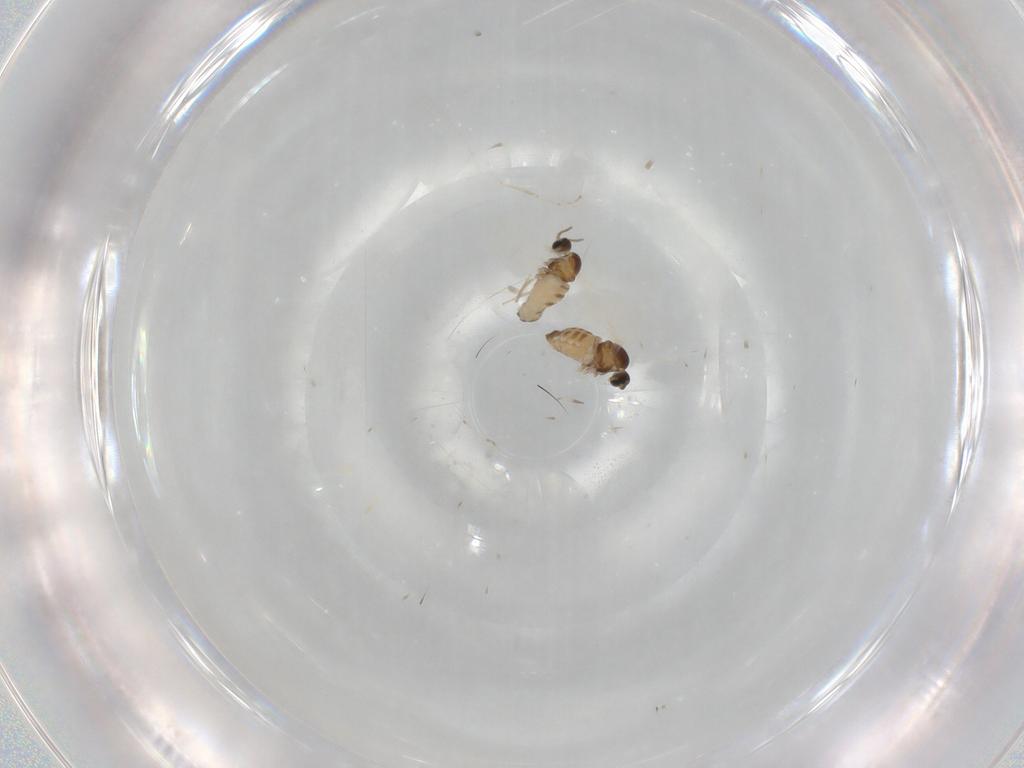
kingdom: Animalia
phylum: Arthropoda
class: Insecta
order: Diptera
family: Cecidomyiidae
